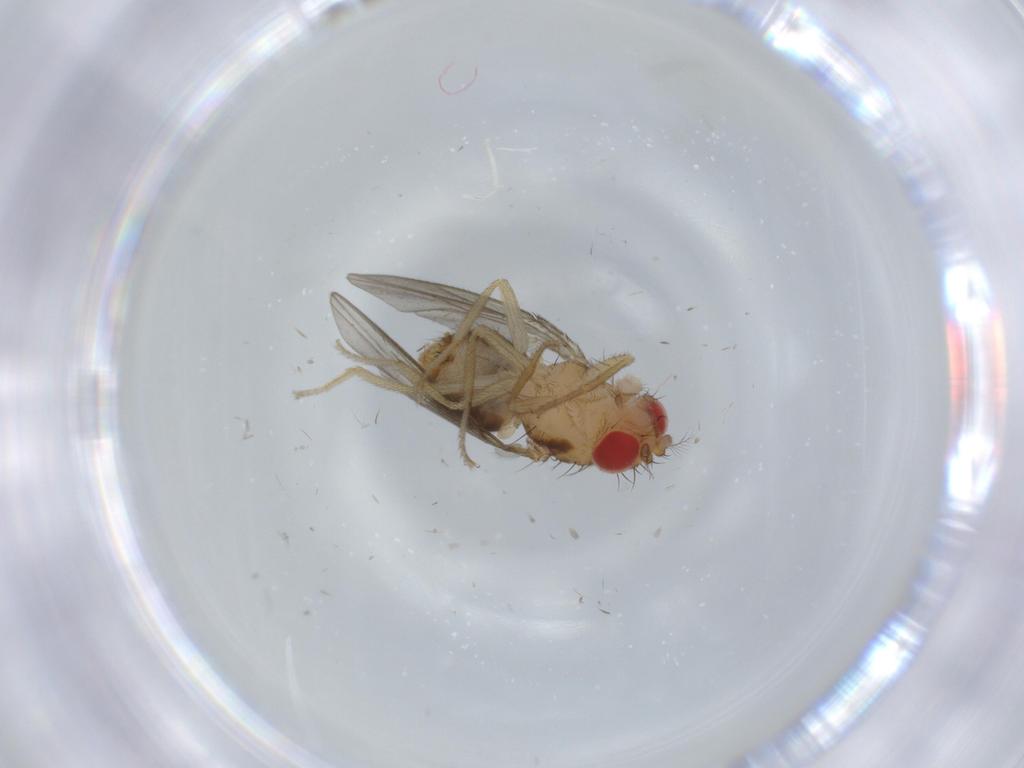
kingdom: Animalia
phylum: Arthropoda
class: Insecta
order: Diptera
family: Drosophilidae
